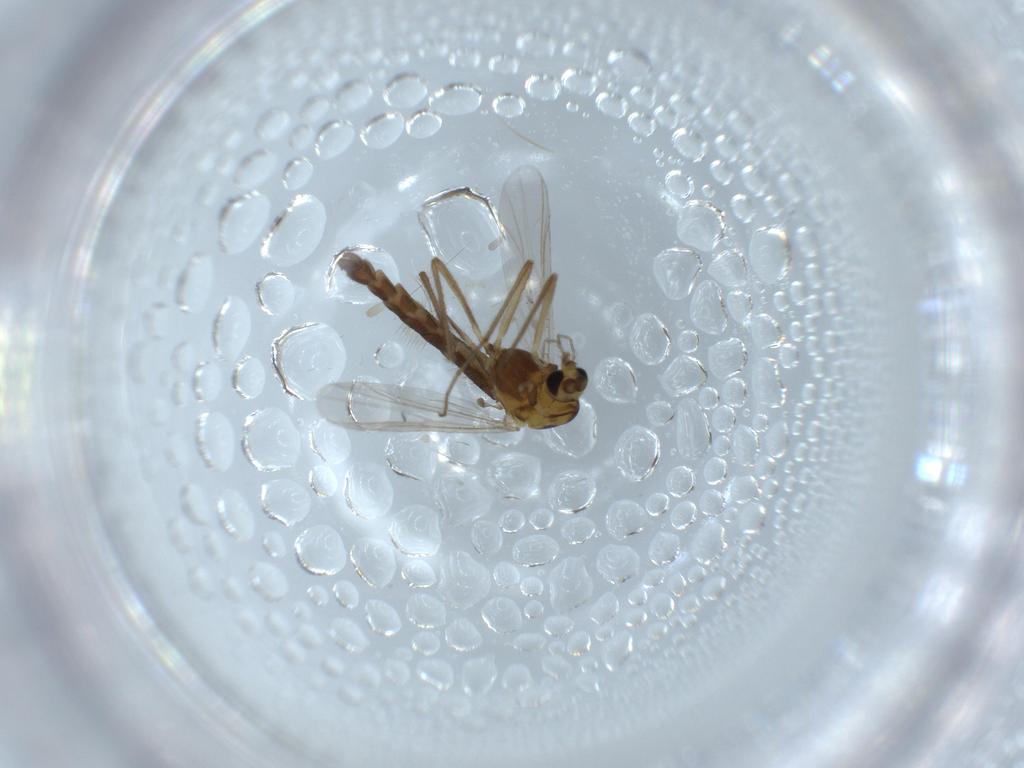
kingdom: Animalia
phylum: Arthropoda
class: Insecta
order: Diptera
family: Chironomidae
